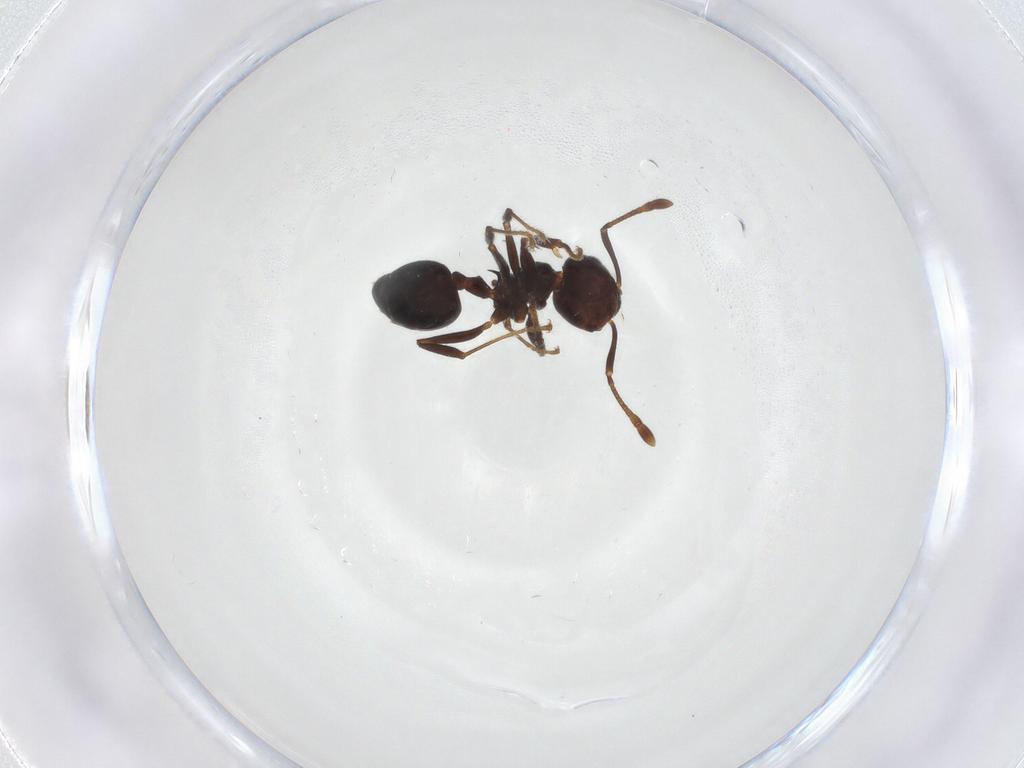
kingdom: Animalia
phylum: Arthropoda
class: Insecta
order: Hymenoptera
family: Formicidae
